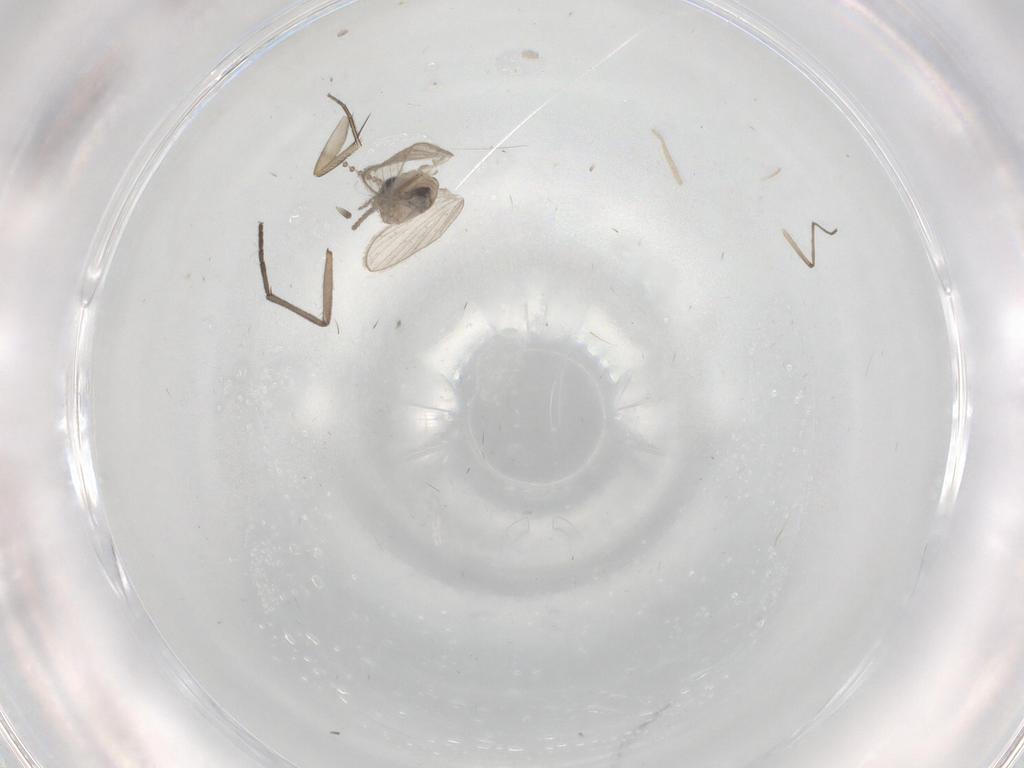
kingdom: Animalia
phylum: Arthropoda
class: Insecta
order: Diptera
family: Psychodidae
